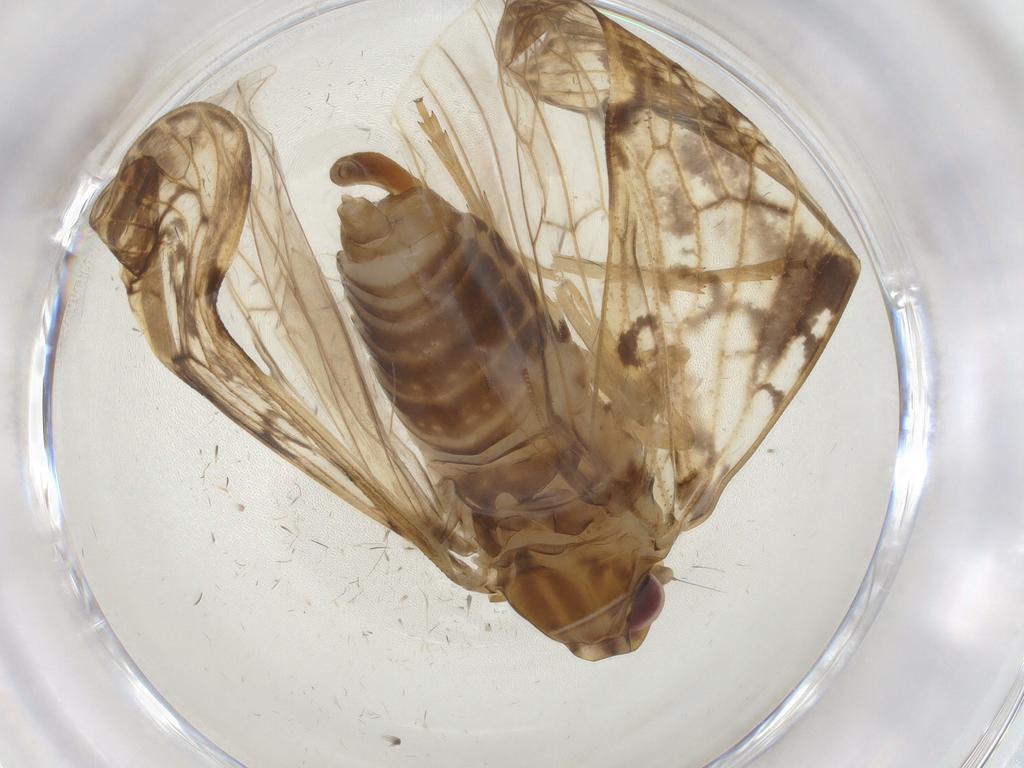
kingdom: Animalia
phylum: Arthropoda
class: Insecta
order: Hemiptera
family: Cixiidae
